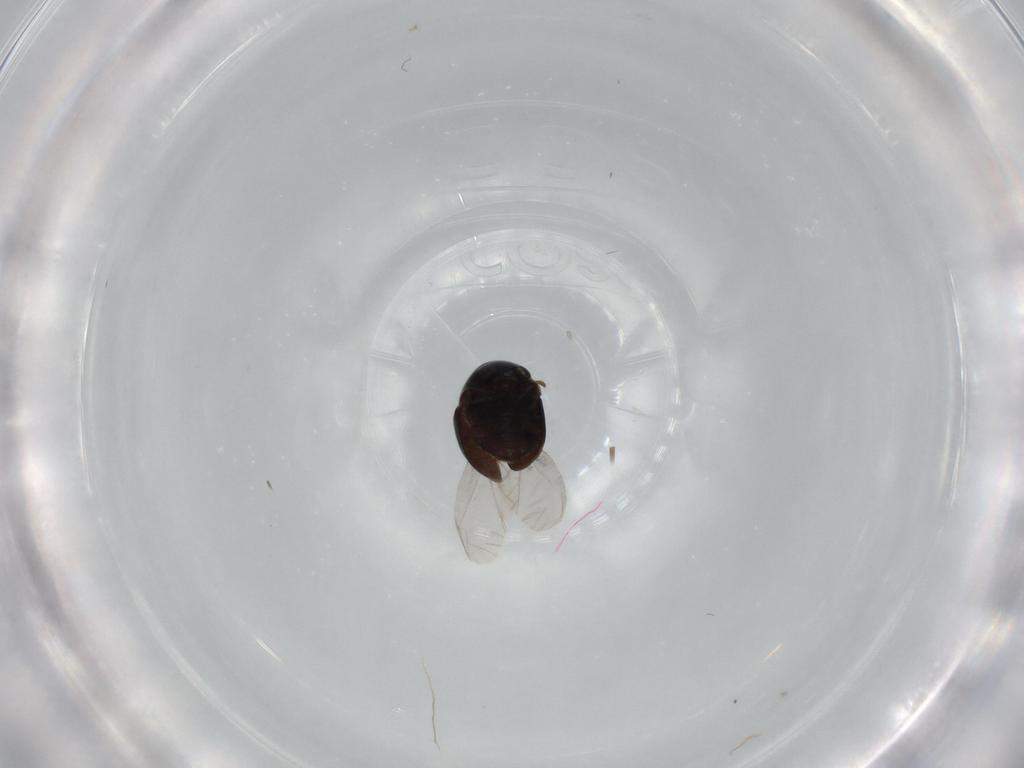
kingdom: Animalia
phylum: Arthropoda
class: Insecta
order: Coleoptera
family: Cybocephalidae
